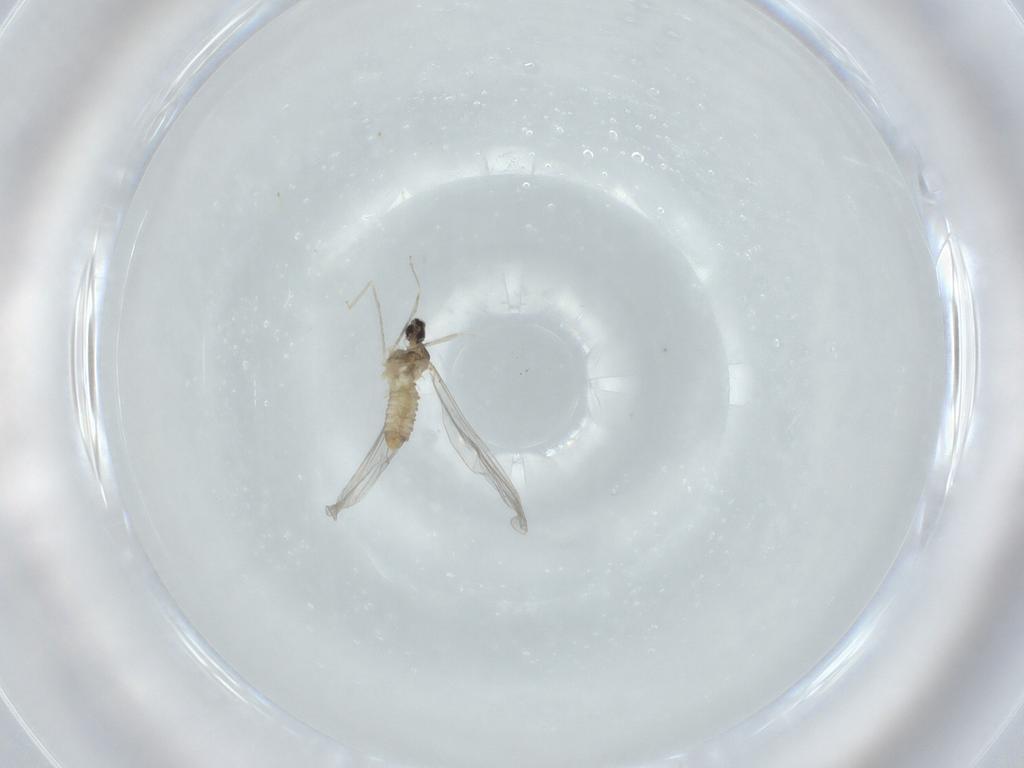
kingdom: Animalia
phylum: Arthropoda
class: Insecta
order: Diptera
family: Cecidomyiidae
